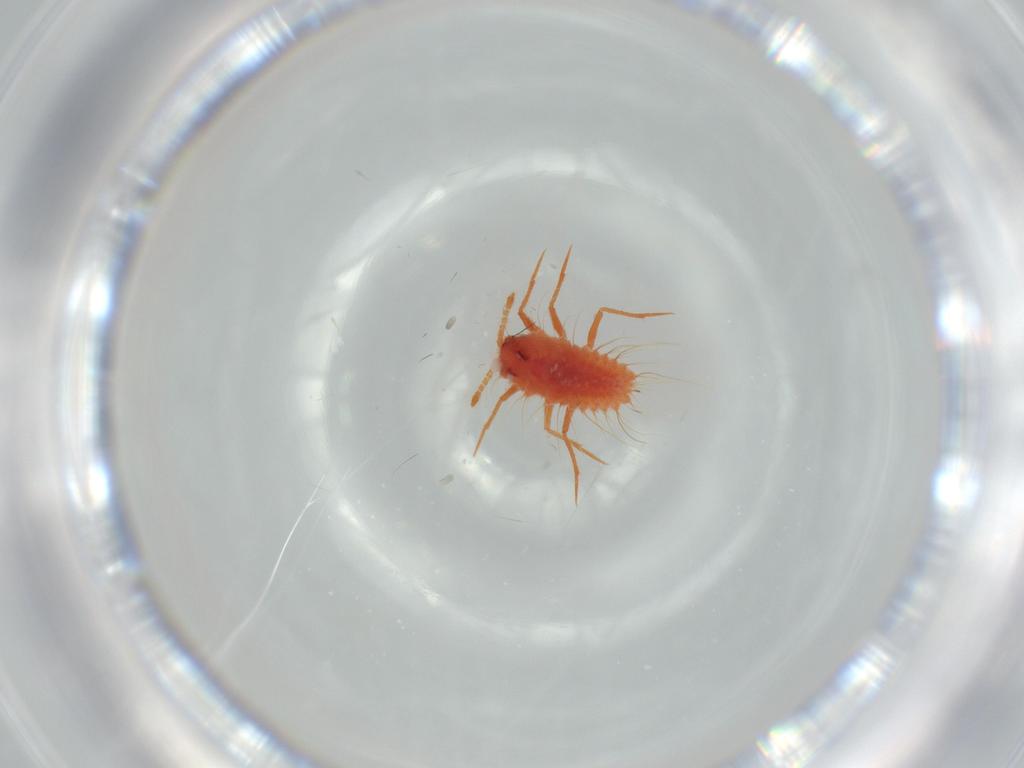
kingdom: Animalia
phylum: Arthropoda
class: Insecta
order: Hemiptera
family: Monophlebidae
